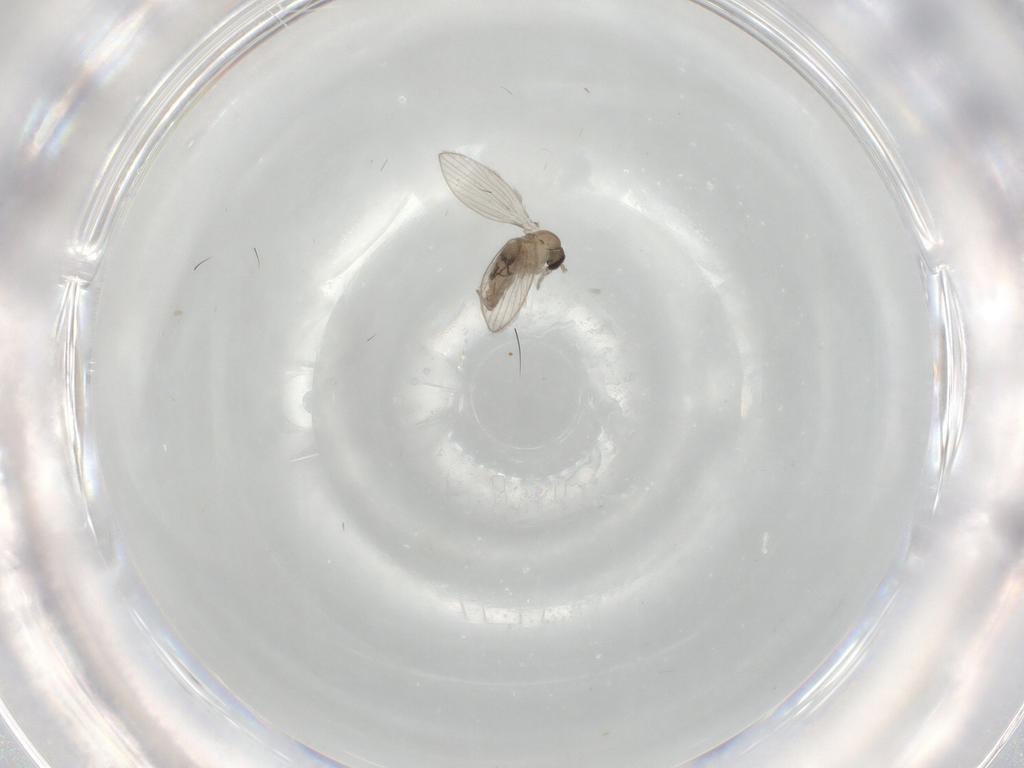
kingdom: Animalia
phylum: Arthropoda
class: Insecta
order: Diptera
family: Psychodidae
